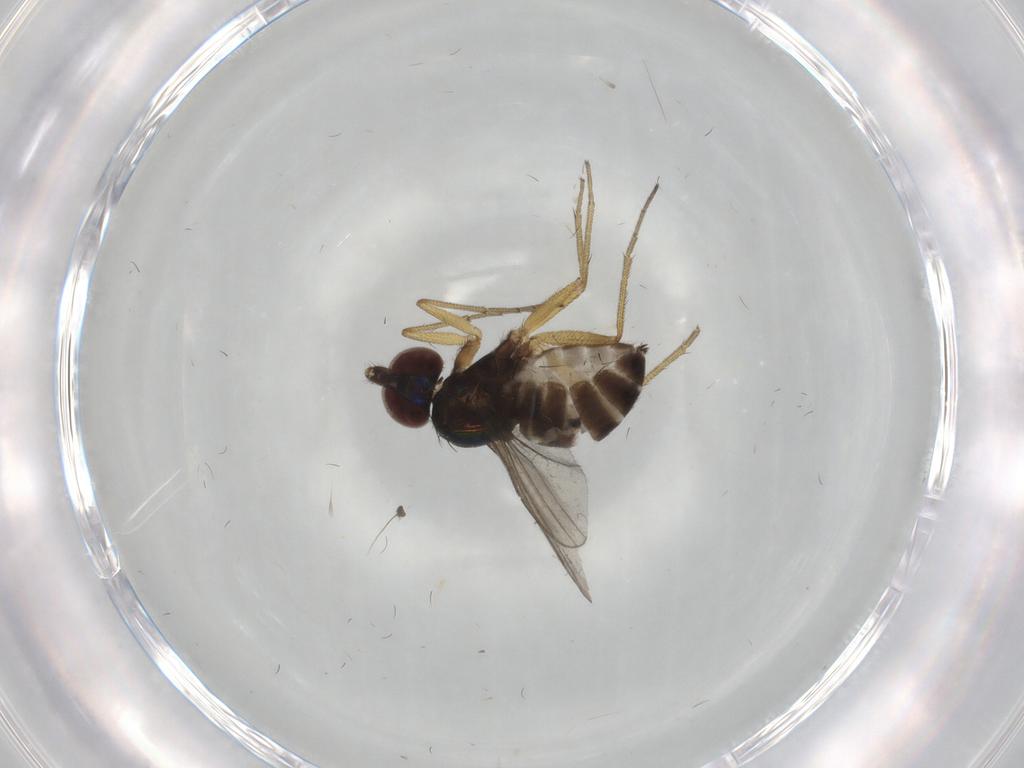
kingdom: Animalia
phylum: Arthropoda
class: Insecta
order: Diptera
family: Dolichopodidae
